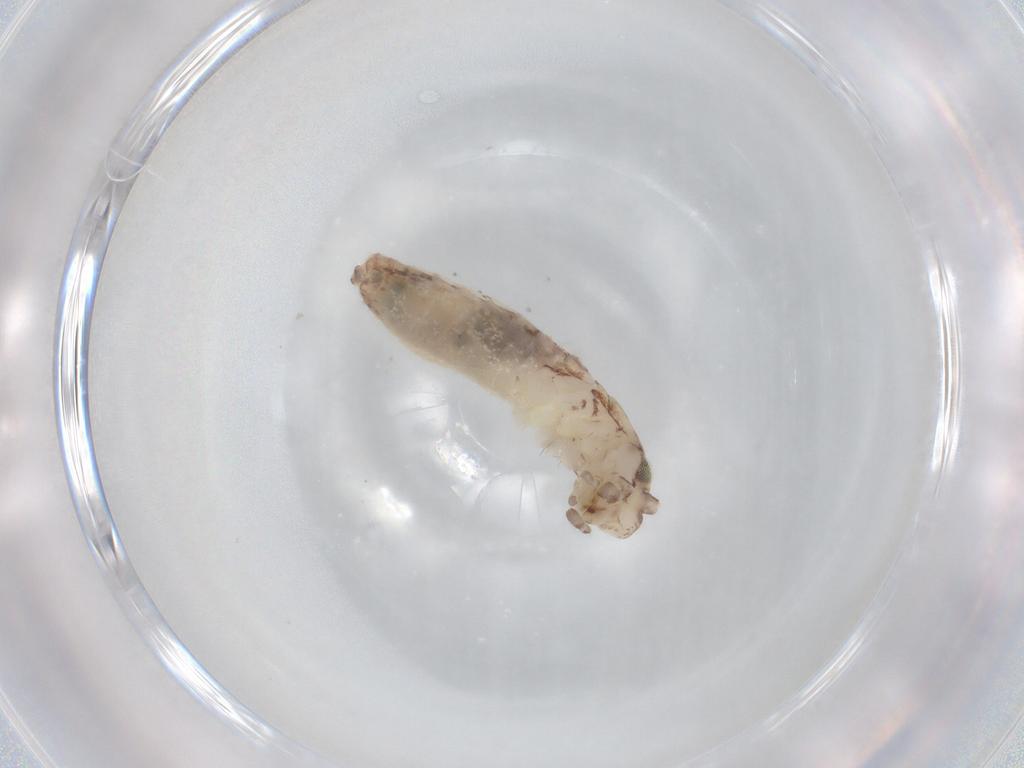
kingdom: Animalia
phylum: Arthropoda
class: Insecta
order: Orthoptera
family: Mogoplistidae
